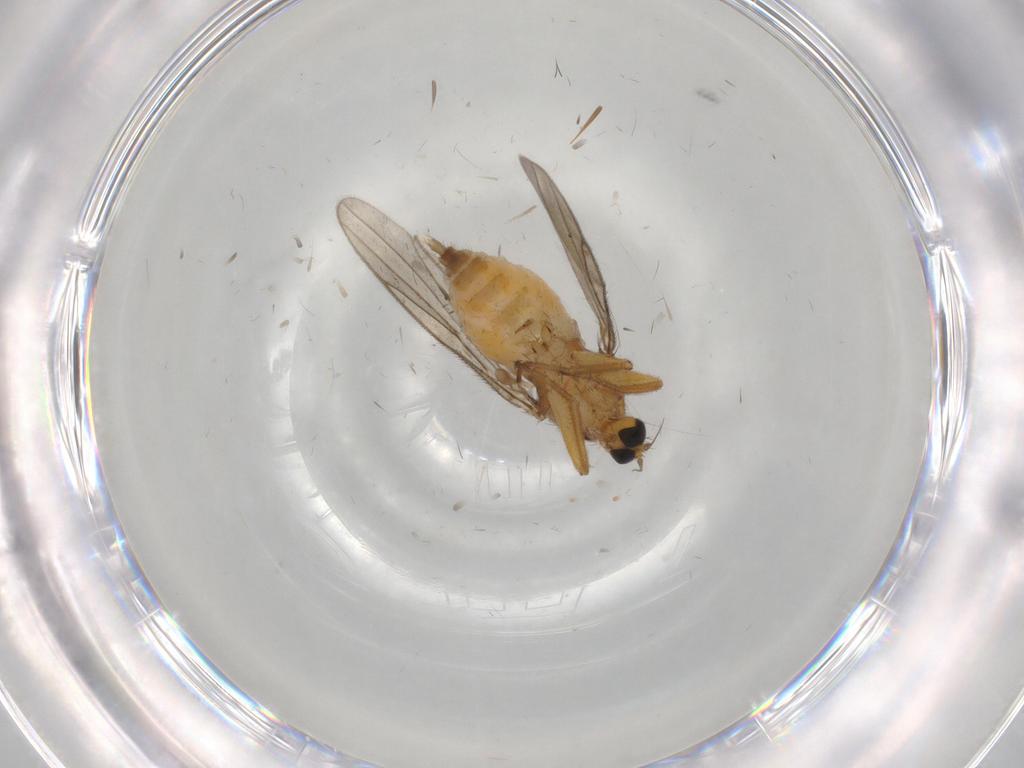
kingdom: Animalia
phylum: Arthropoda
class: Insecta
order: Diptera
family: Hybotidae
